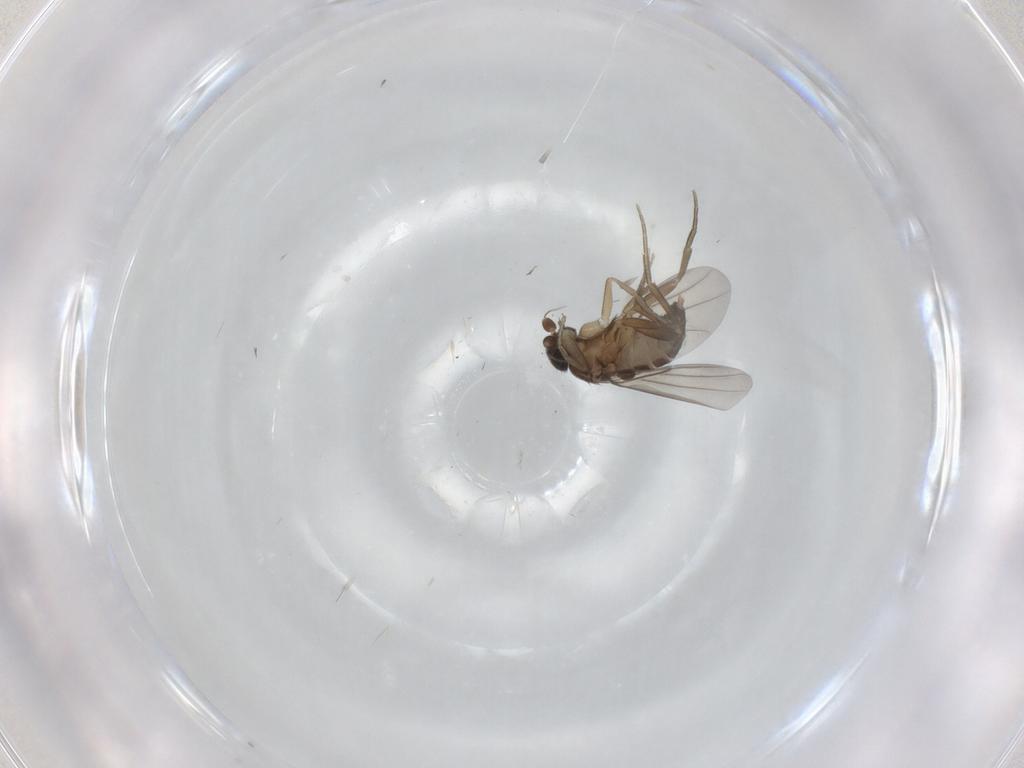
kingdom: Animalia
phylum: Arthropoda
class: Insecta
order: Diptera
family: Phoridae
